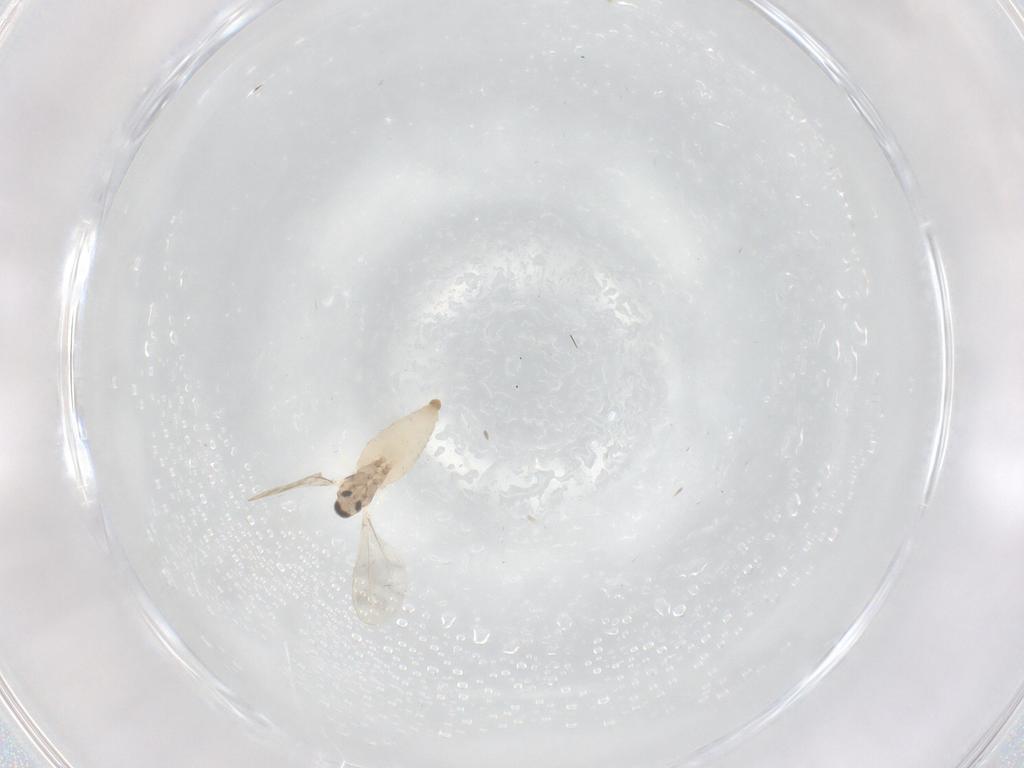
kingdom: Animalia
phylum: Arthropoda
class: Insecta
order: Diptera
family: Cecidomyiidae
